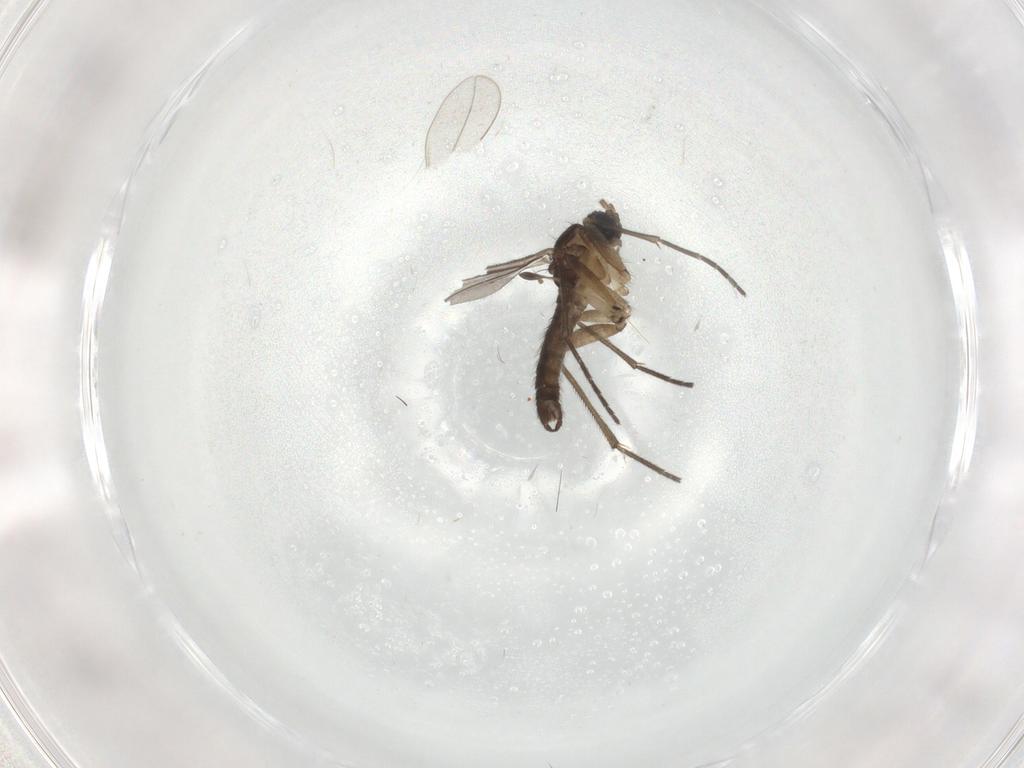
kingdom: Animalia
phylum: Arthropoda
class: Insecta
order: Diptera
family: Sciaridae
